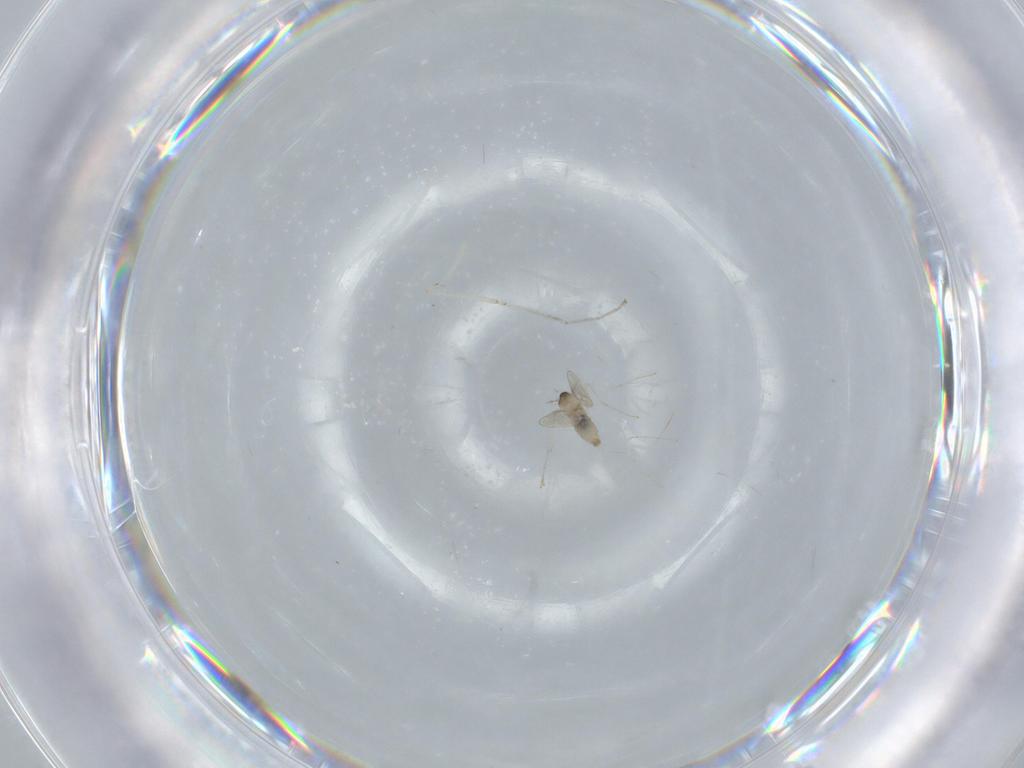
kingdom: Animalia
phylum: Arthropoda
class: Insecta
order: Diptera
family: Cecidomyiidae
